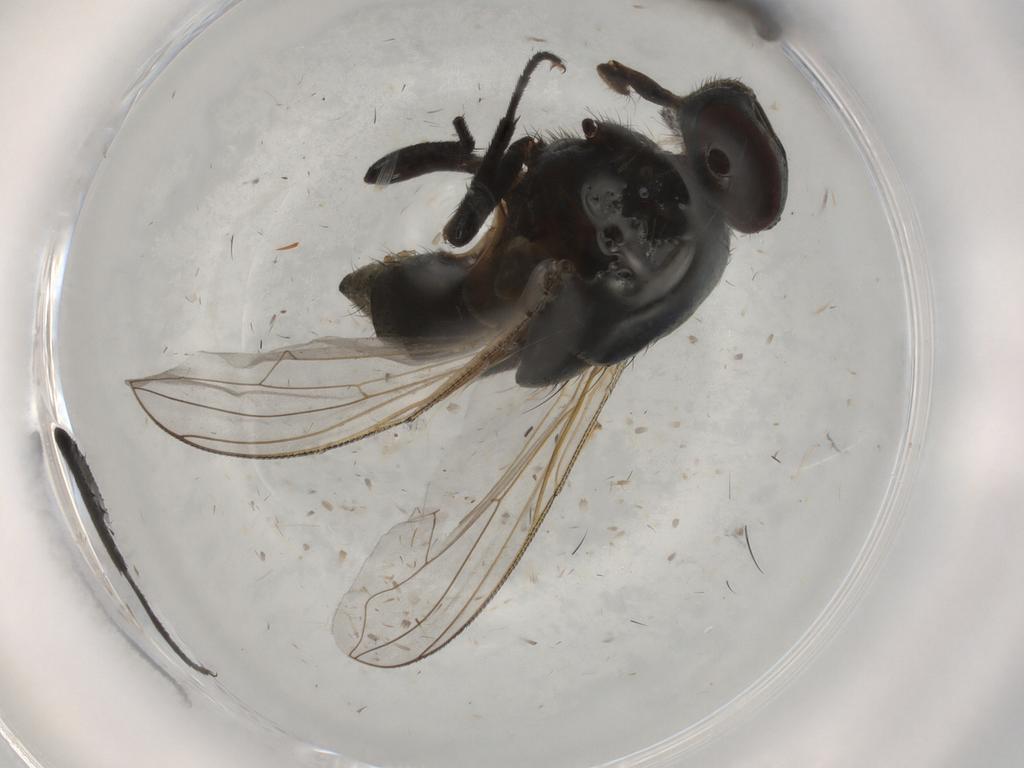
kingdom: Animalia
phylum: Arthropoda
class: Insecta
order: Diptera
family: Muscidae
